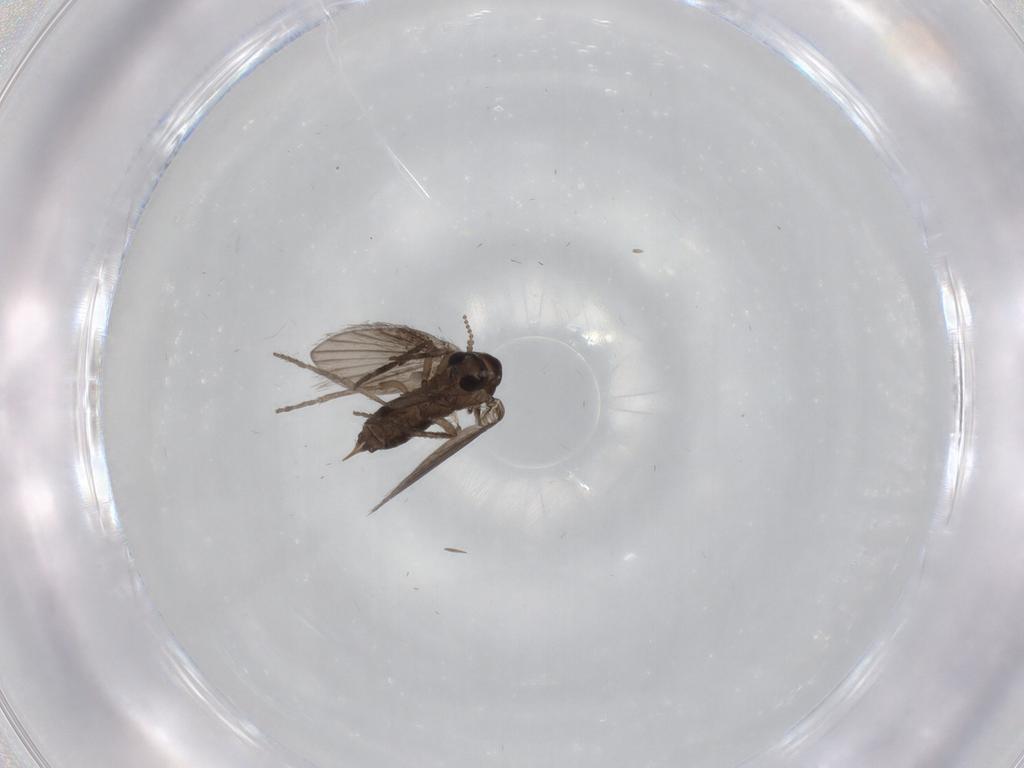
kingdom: Animalia
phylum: Arthropoda
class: Insecta
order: Diptera
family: Psychodidae
